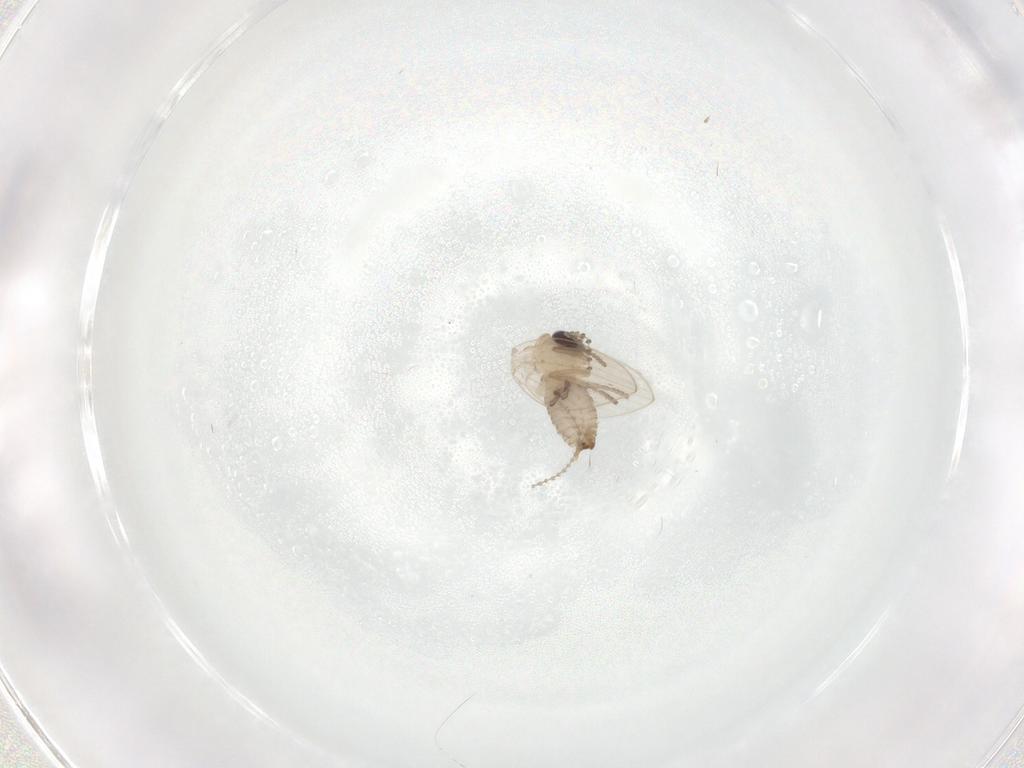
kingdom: Animalia
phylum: Arthropoda
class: Insecta
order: Diptera
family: Psychodidae
